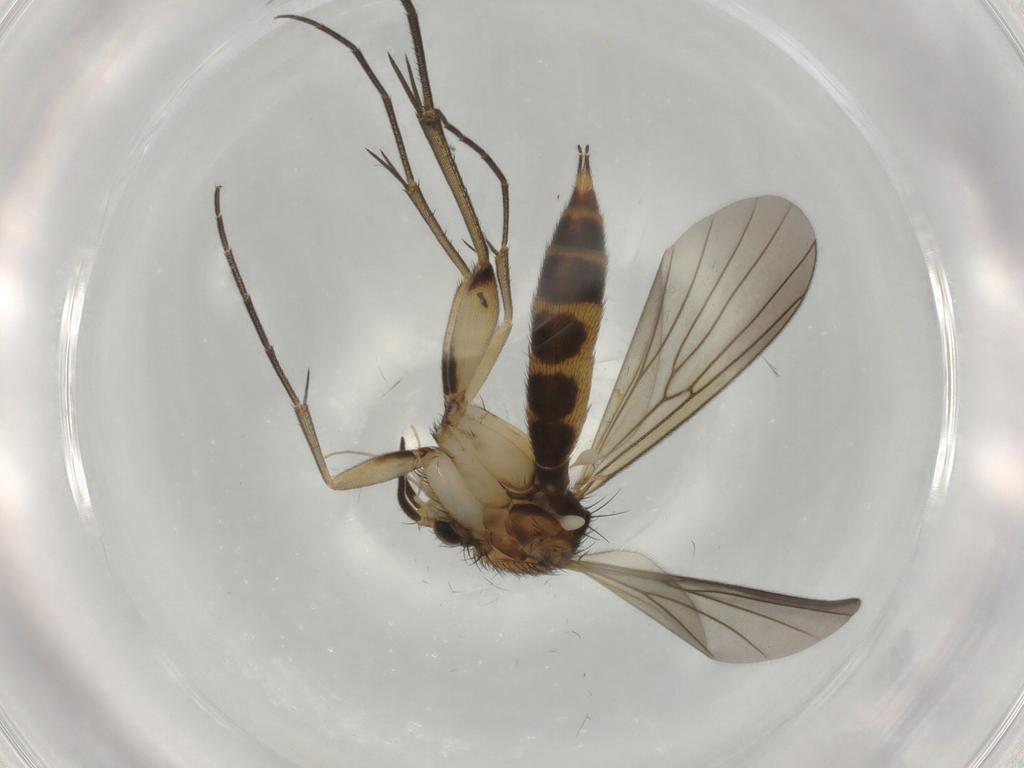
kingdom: Animalia
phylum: Arthropoda
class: Insecta
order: Diptera
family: Mycetophilidae
